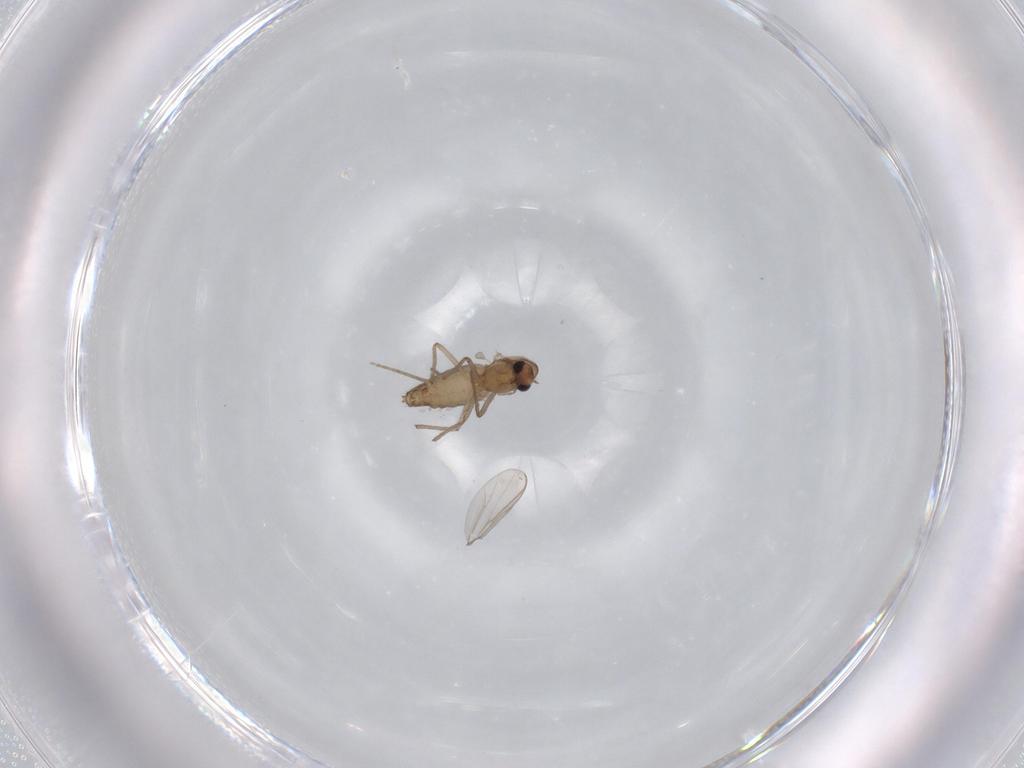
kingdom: Animalia
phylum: Arthropoda
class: Insecta
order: Diptera
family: Chironomidae
